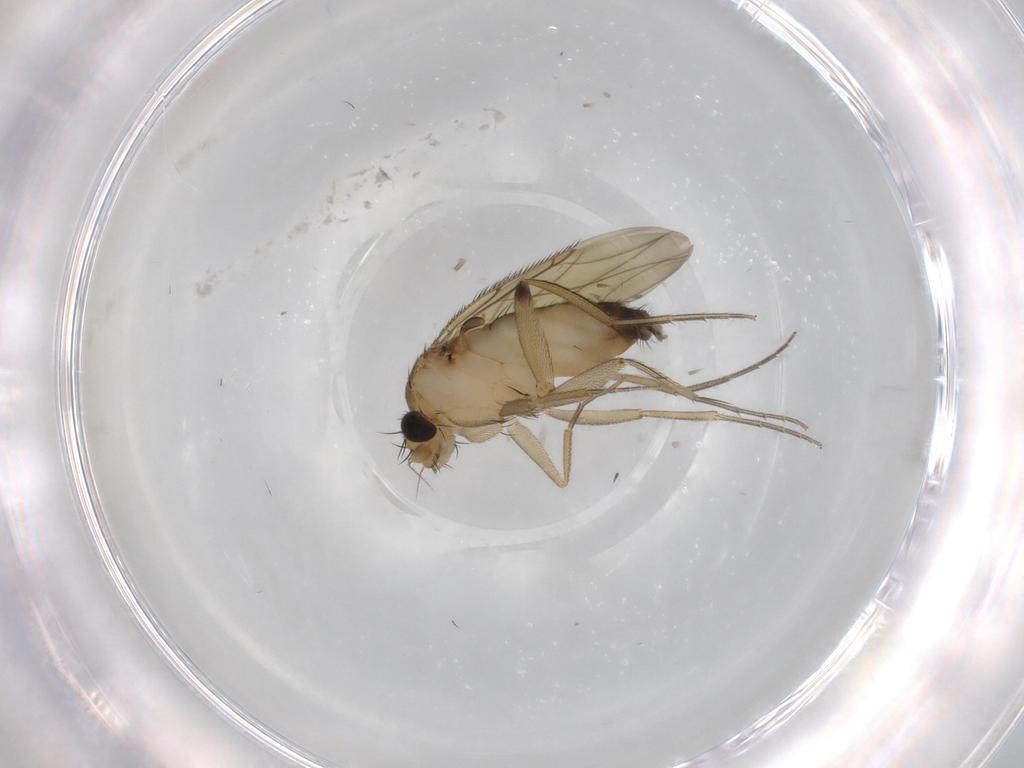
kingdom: Animalia
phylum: Arthropoda
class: Insecta
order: Diptera
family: Phoridae
